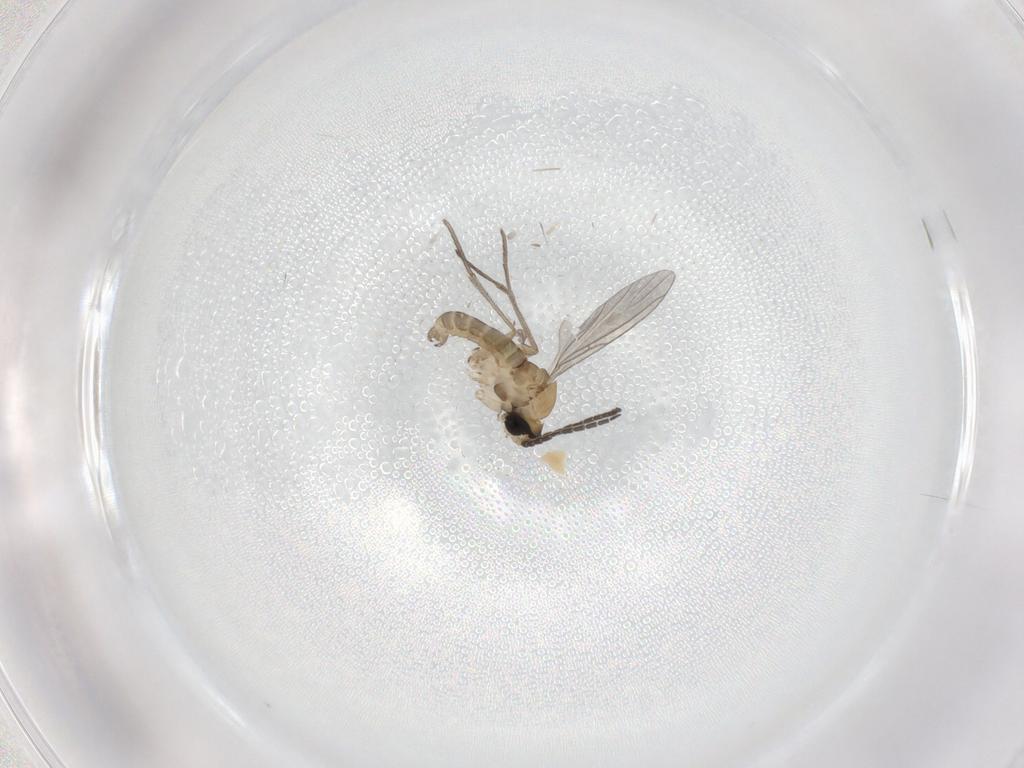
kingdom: Animalia
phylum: Arthropoda
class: Insecta
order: Diptera
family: Sciaridae
